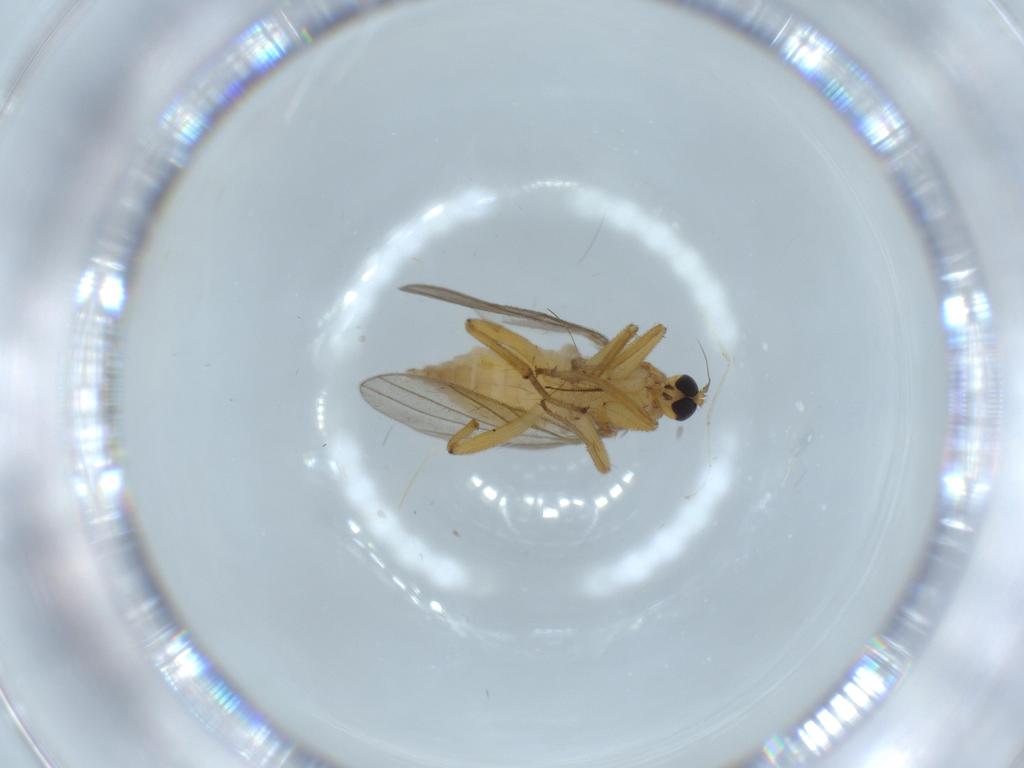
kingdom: Animalia
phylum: Arthropoda
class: Insecta
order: Diptera
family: Hybotidae
